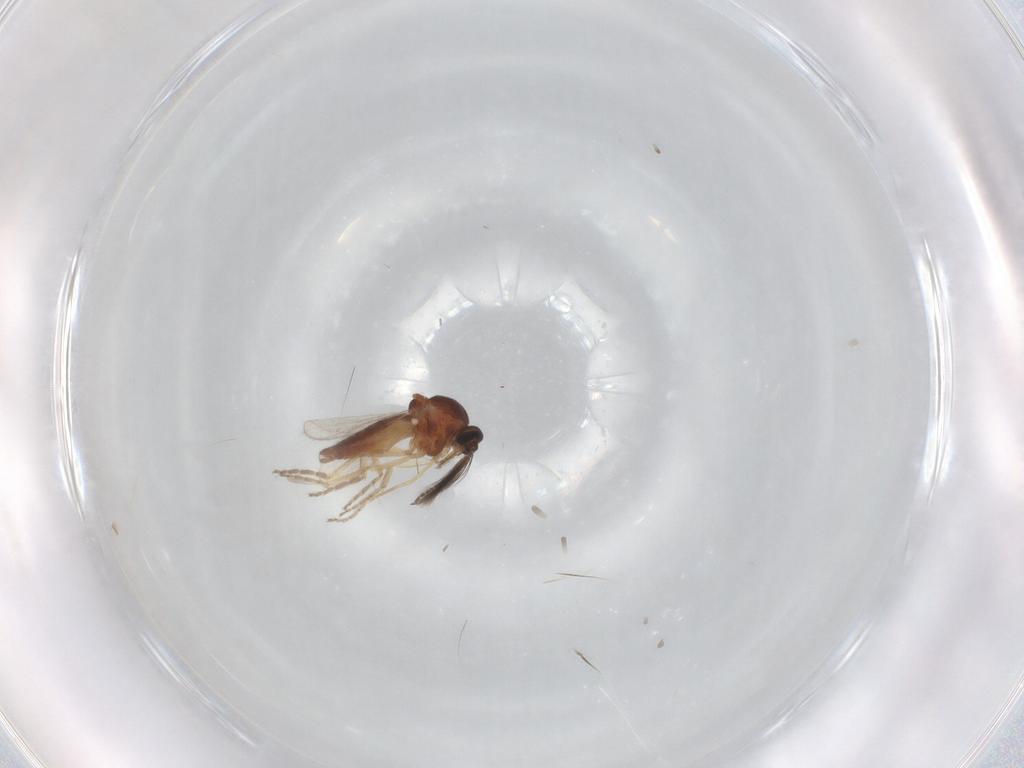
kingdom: Animalia
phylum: Arthropoda
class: Insecta
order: Diptera
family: Ceratopogonidae
